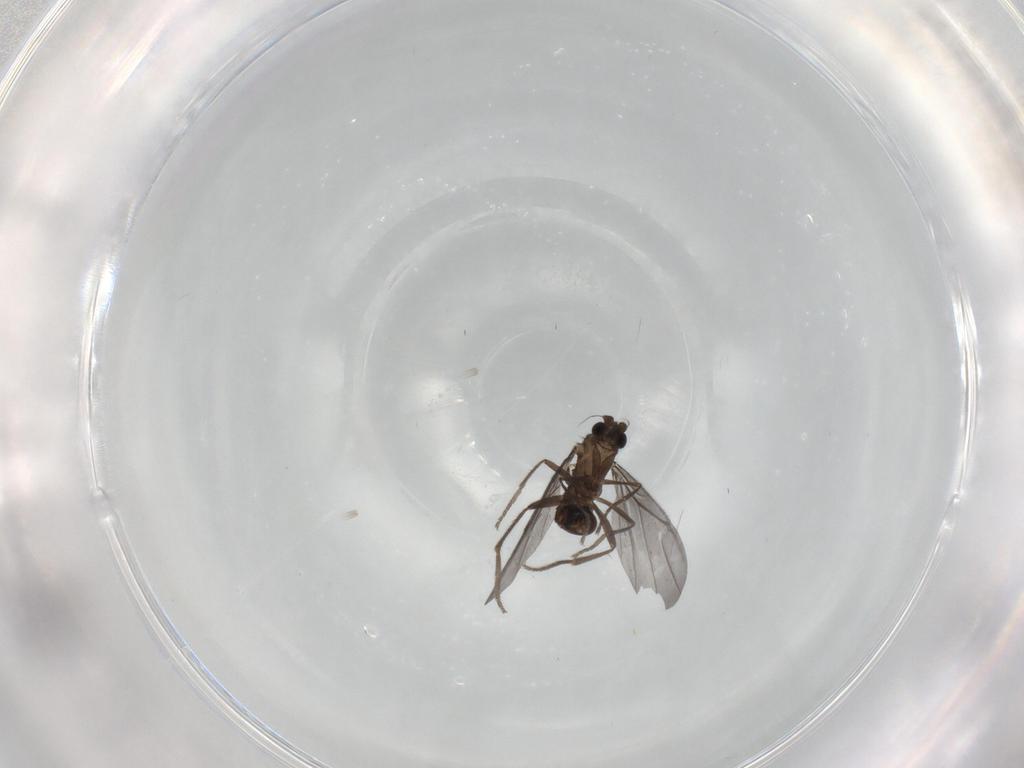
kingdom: Animalia
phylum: Arthropoda
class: Insecta
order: Diptera
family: Phoridae
